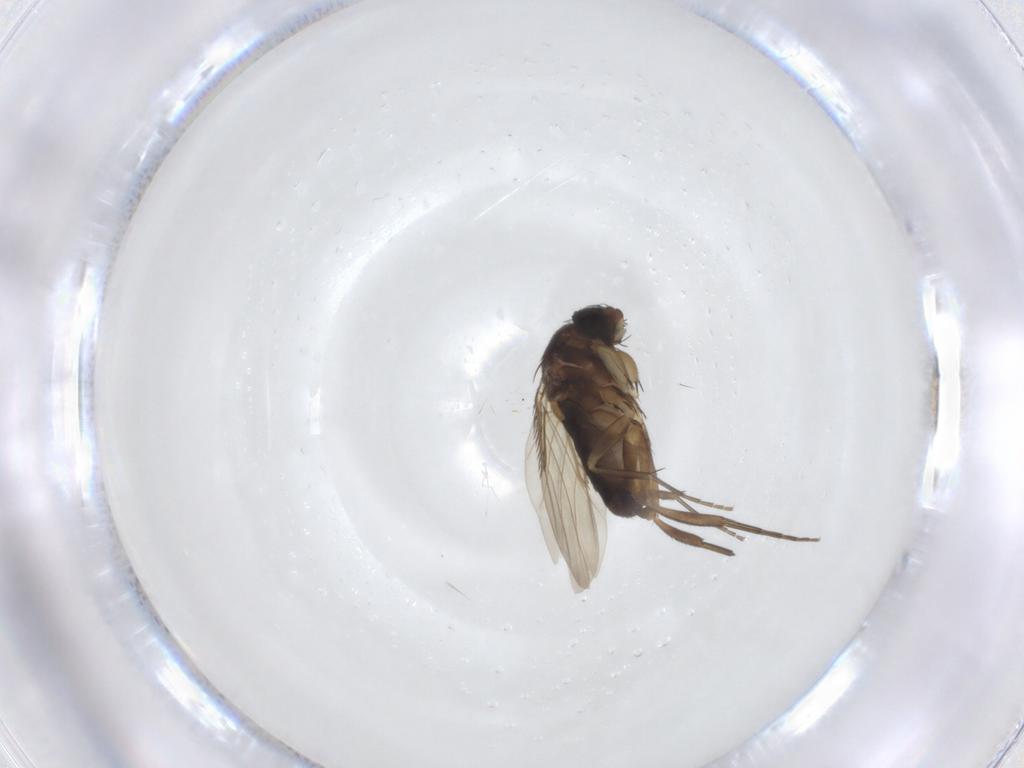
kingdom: Animalia
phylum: Arthropoda
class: Insecta
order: Diptera
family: Phoridae
